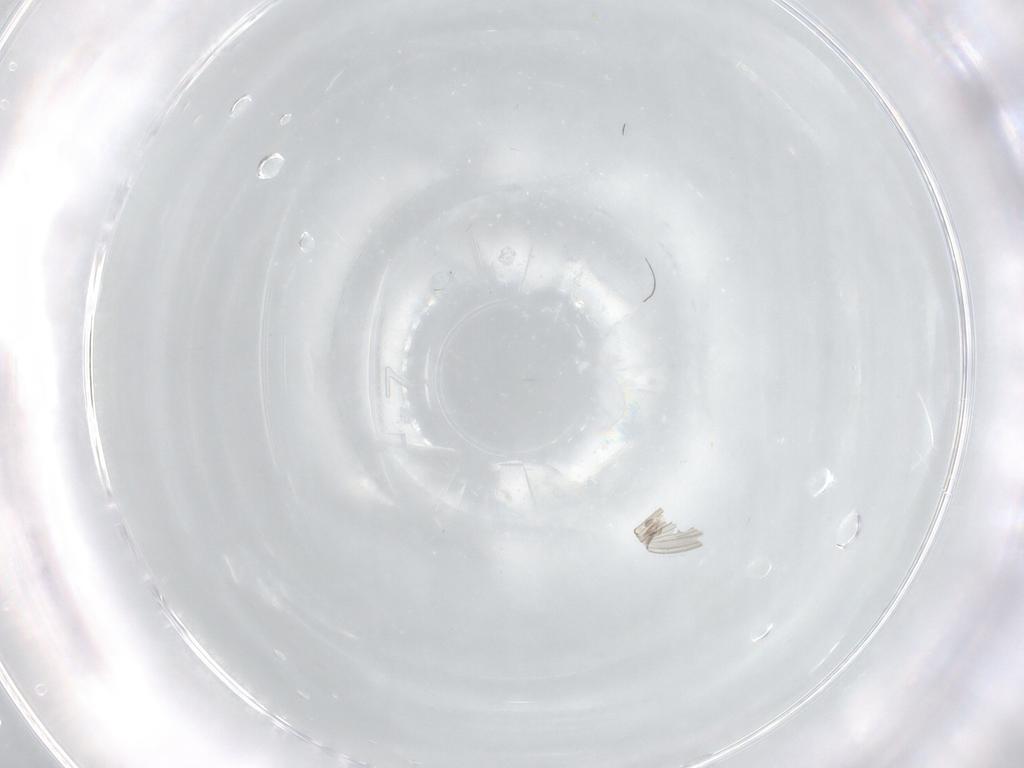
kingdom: Animalia
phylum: Arthropoda
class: Insecta
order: Diptera
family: Psychodidae
